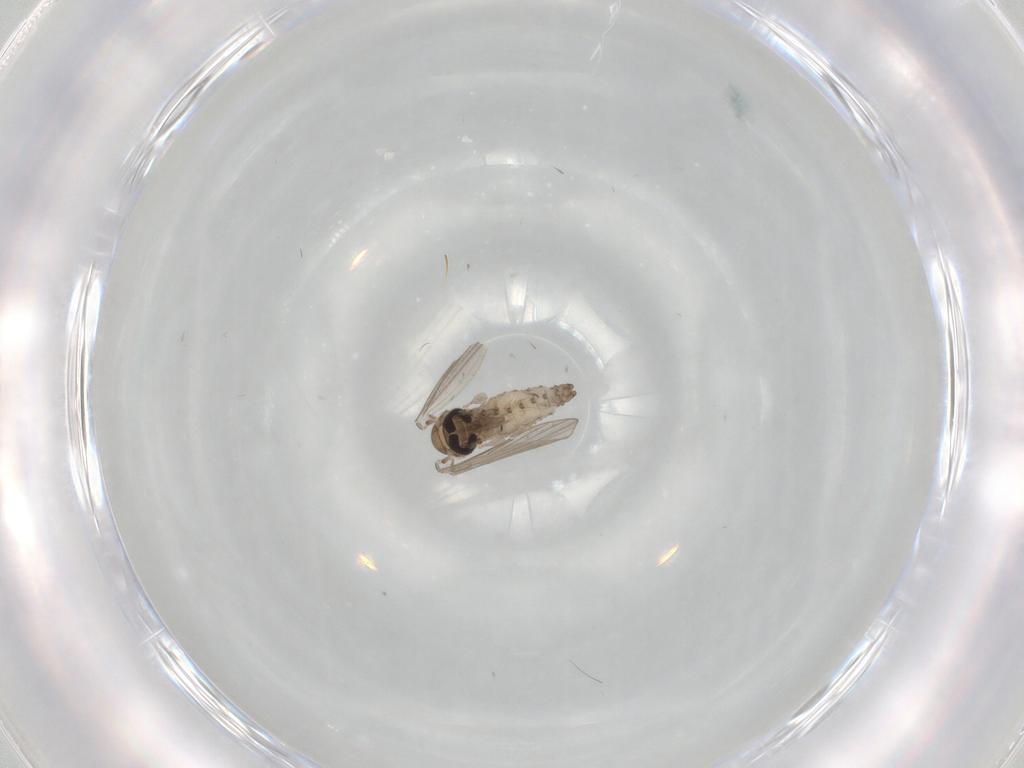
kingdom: Animalia
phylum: Arthropoda
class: Insecta
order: Diptera
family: Psychodidae
